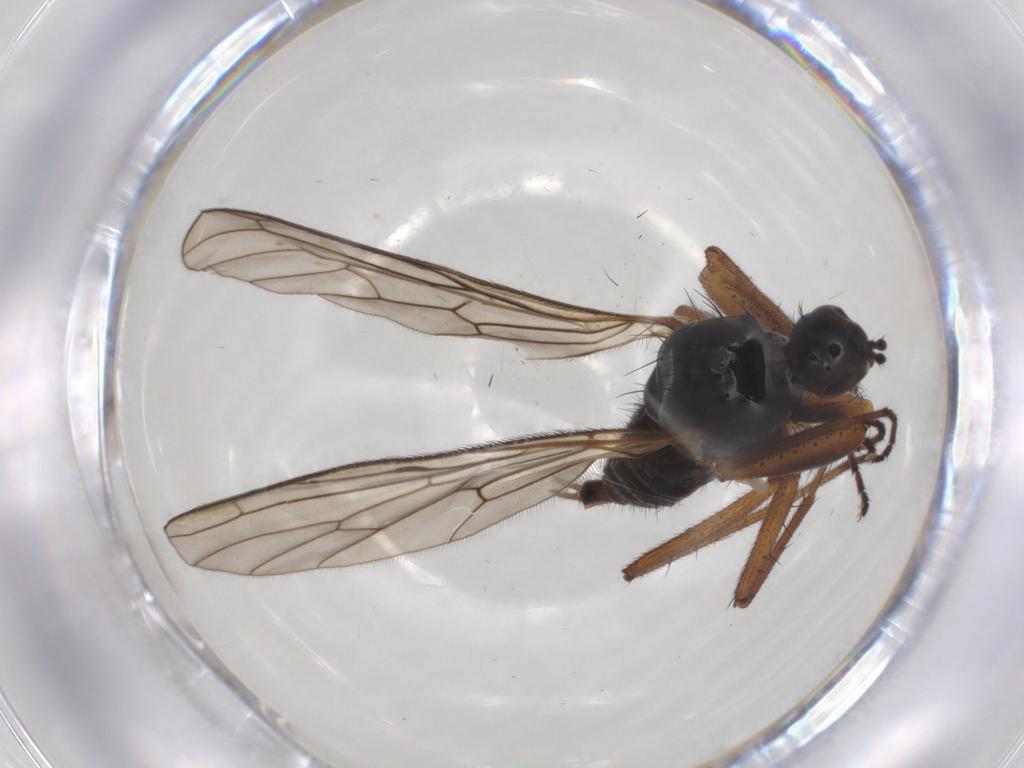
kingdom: Animalia
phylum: Arthropoda
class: Insecta
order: Diptera
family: Cecidomyiidae
